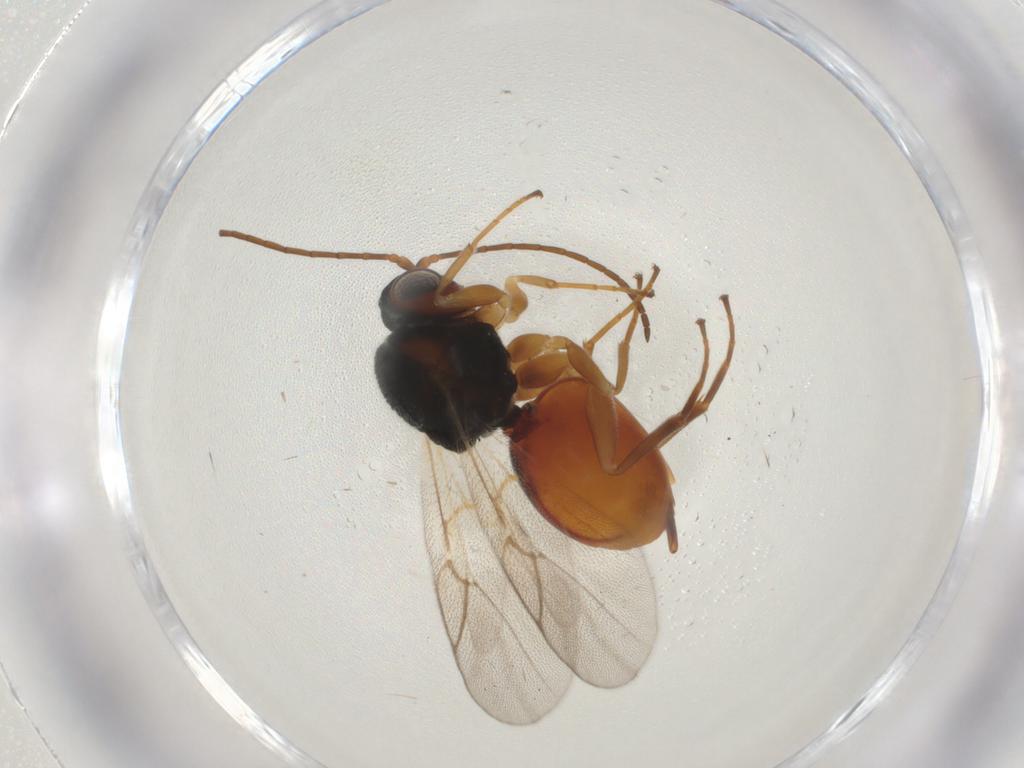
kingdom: Animalia
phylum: Arthropoda
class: Insecta
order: Hymenoptera
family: Cynipidae
